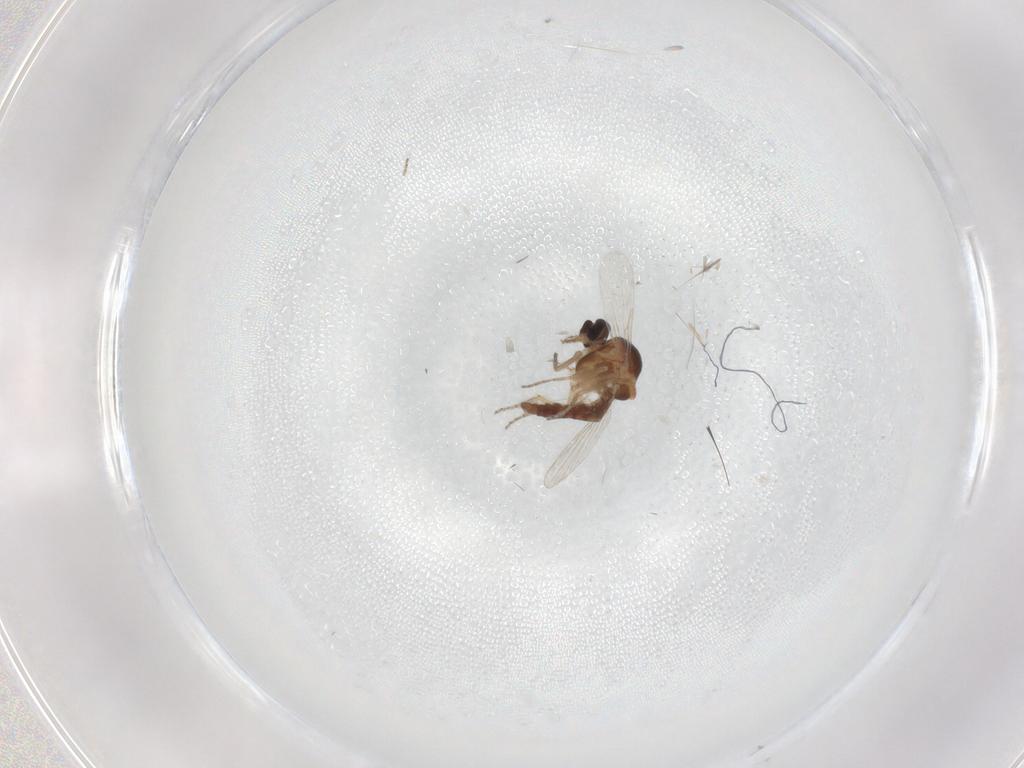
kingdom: Animalia
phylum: Arthropoda
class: Insecta
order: Diptera
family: Ceratopogonidae
